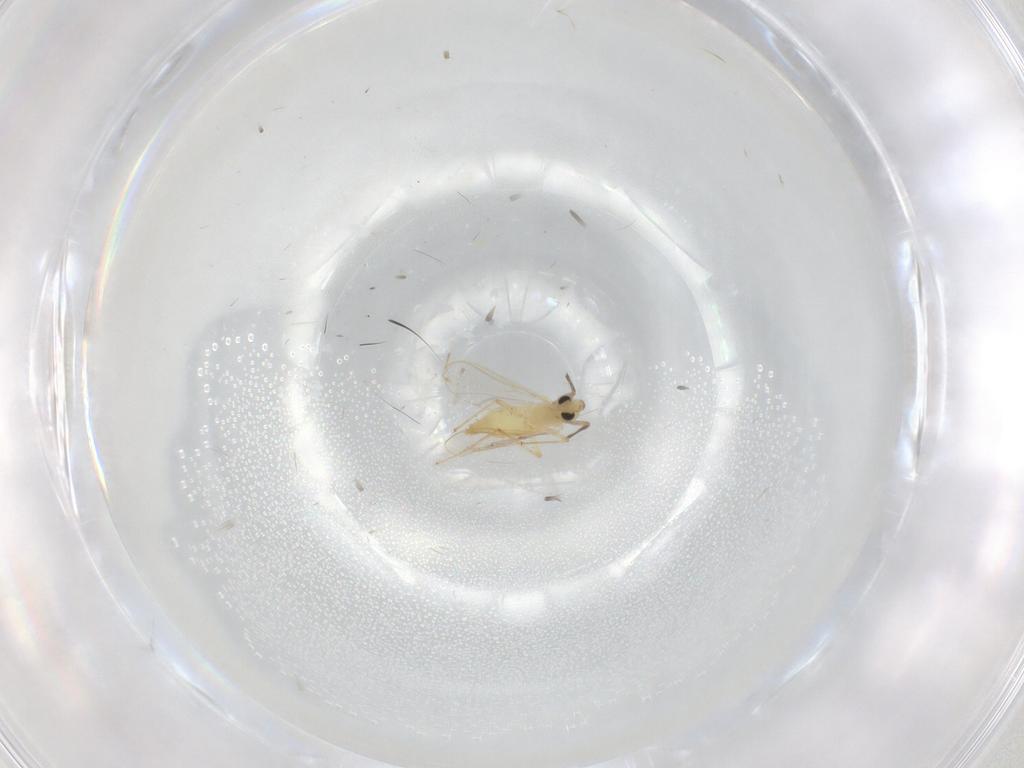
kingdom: Animalia
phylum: Arthropoda
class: Insecta
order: Diptera
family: Chironomidae
